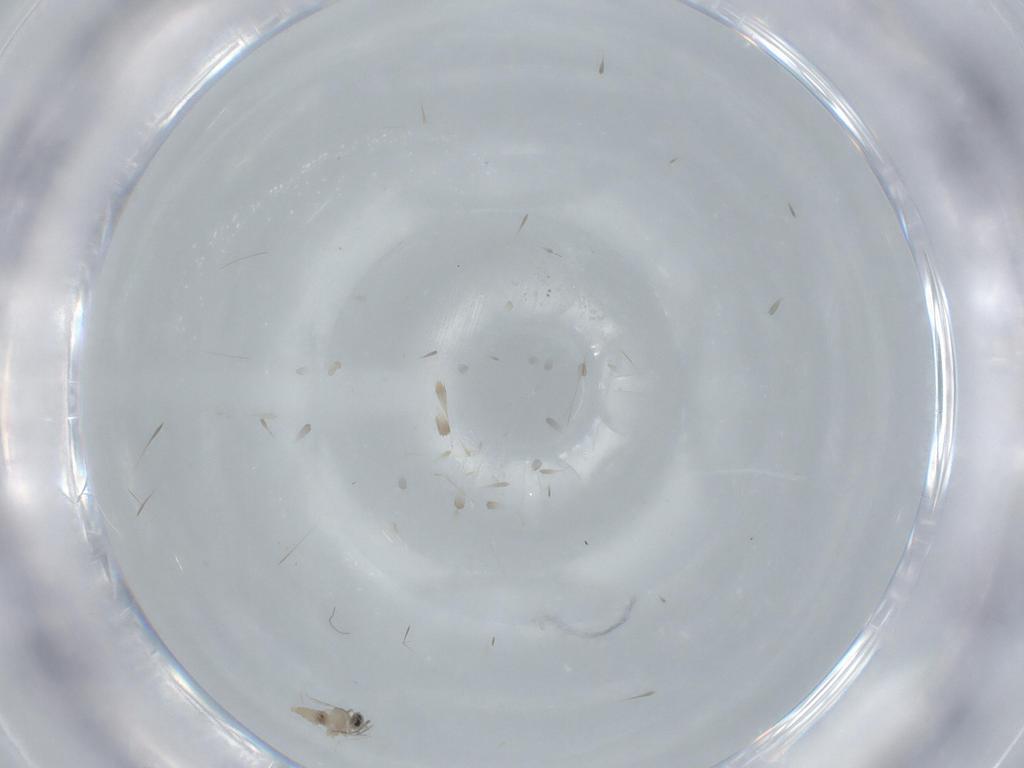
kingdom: Animalia
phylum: Arthropoda
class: Insecta
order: Diptera
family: Cecidomyiidae
